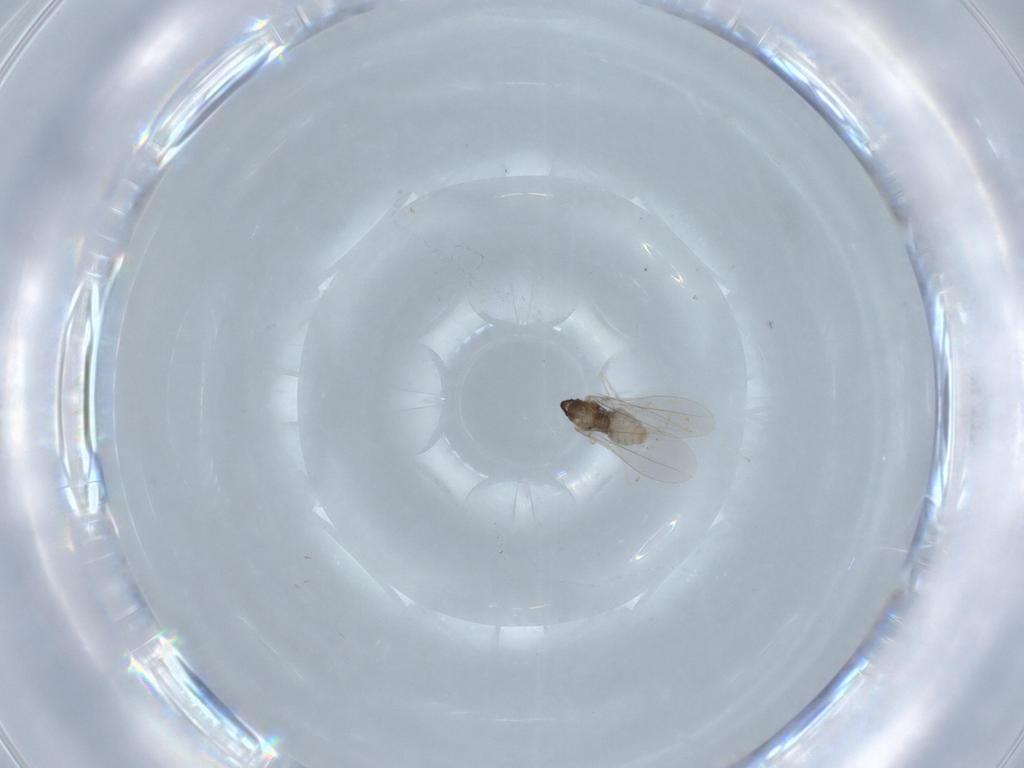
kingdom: Animalia
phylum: Arthropoda
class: Insecta
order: Diptera
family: Cecidomyiidae
